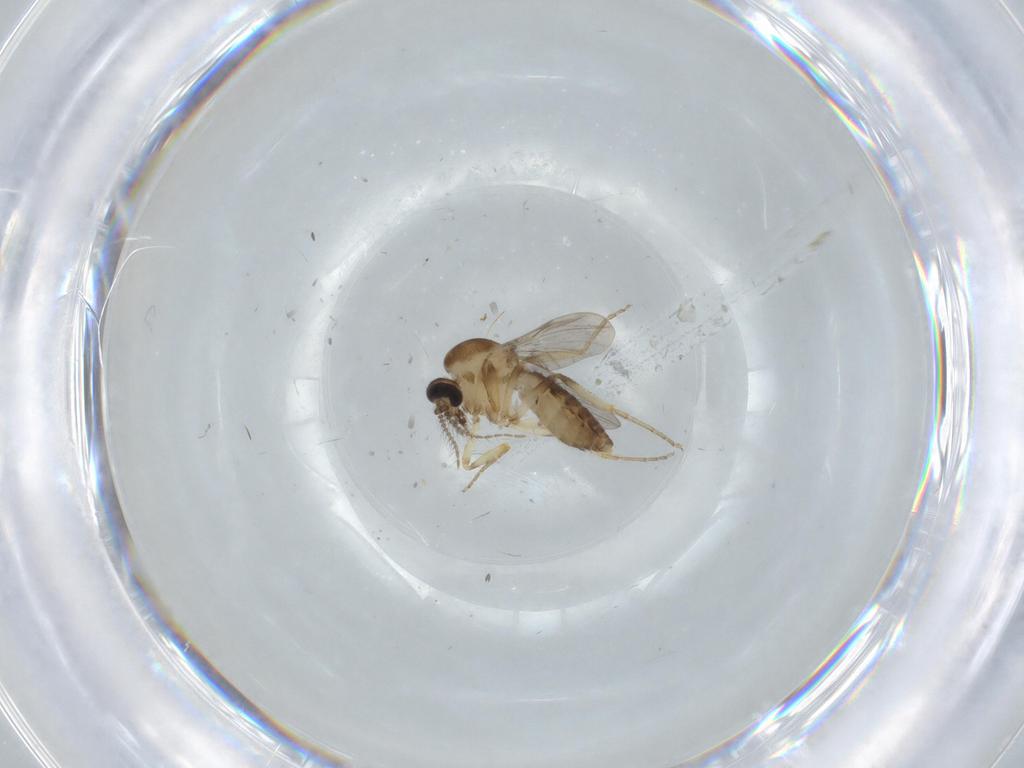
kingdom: Animalia
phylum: Arthropoda
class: Insecta
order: Diptera
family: Ceratopogonidae
